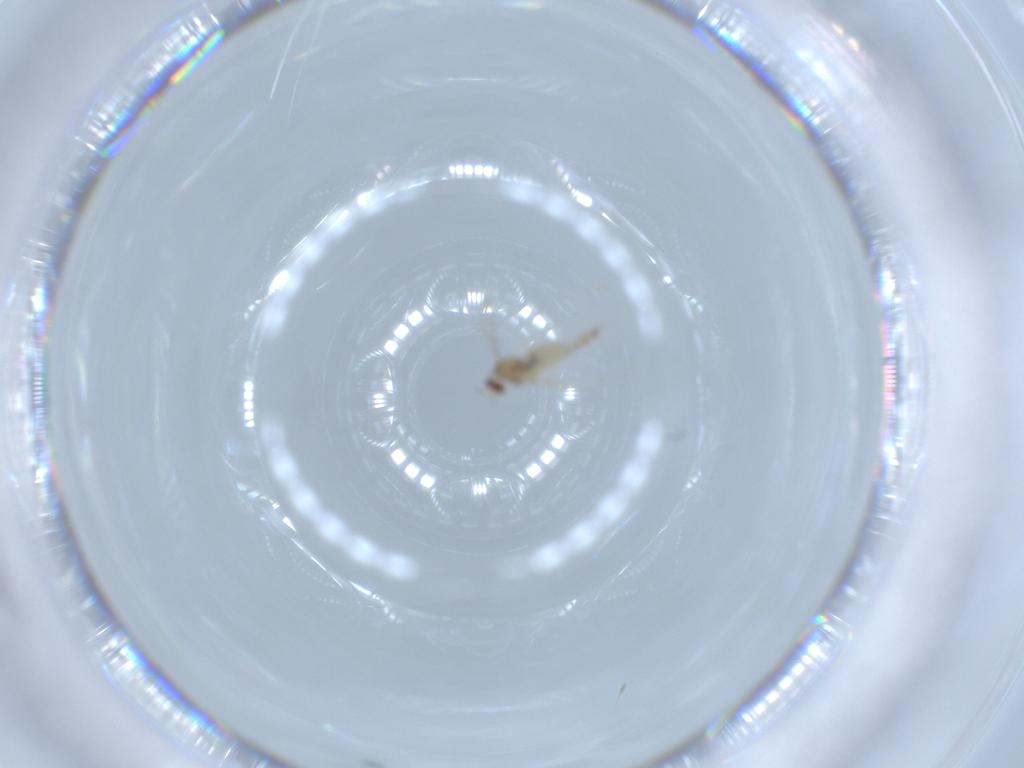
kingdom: Animalia
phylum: Arthropoda
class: Insecta
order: Diptera
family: Cecidomyiidae
